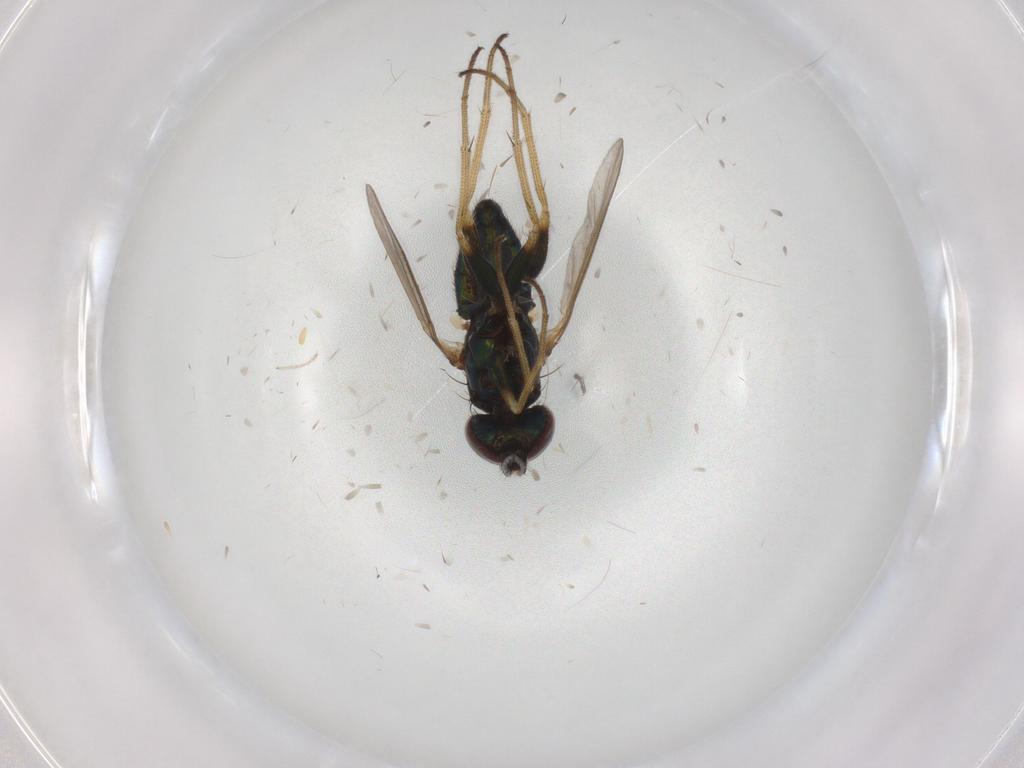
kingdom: Animalia
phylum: Arthropoda
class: Insecta
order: Diptera
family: Dolichopodidae
